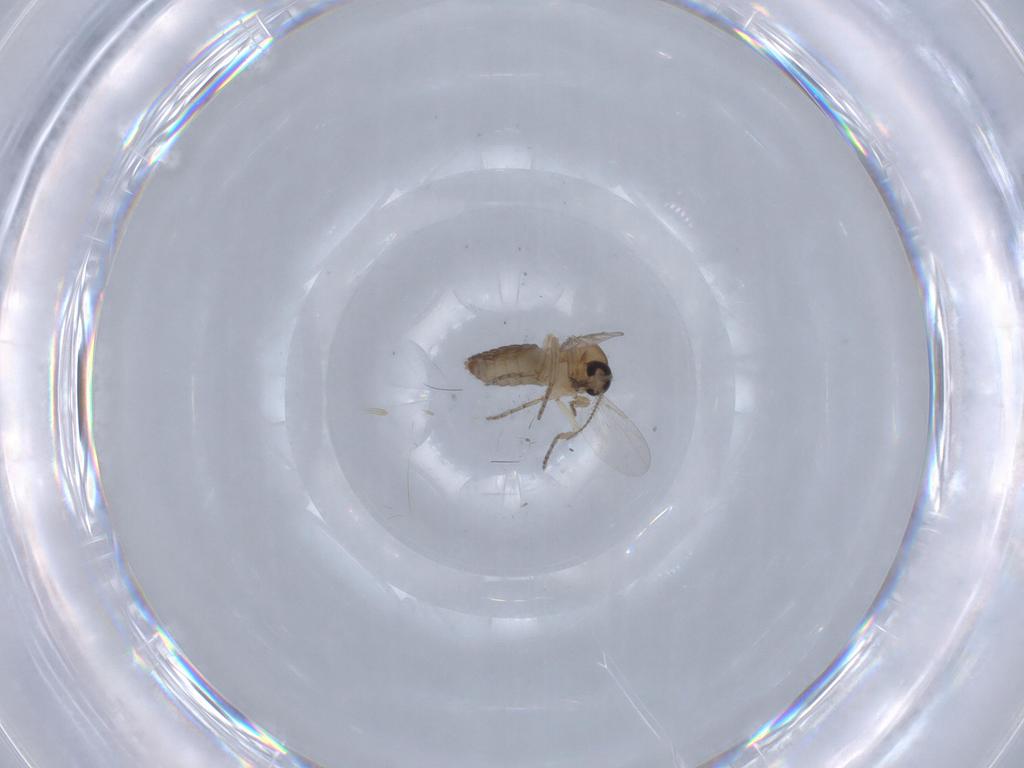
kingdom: Animalia
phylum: Arthropoda
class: Insecta
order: Diptera
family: Ceratopogonidae
